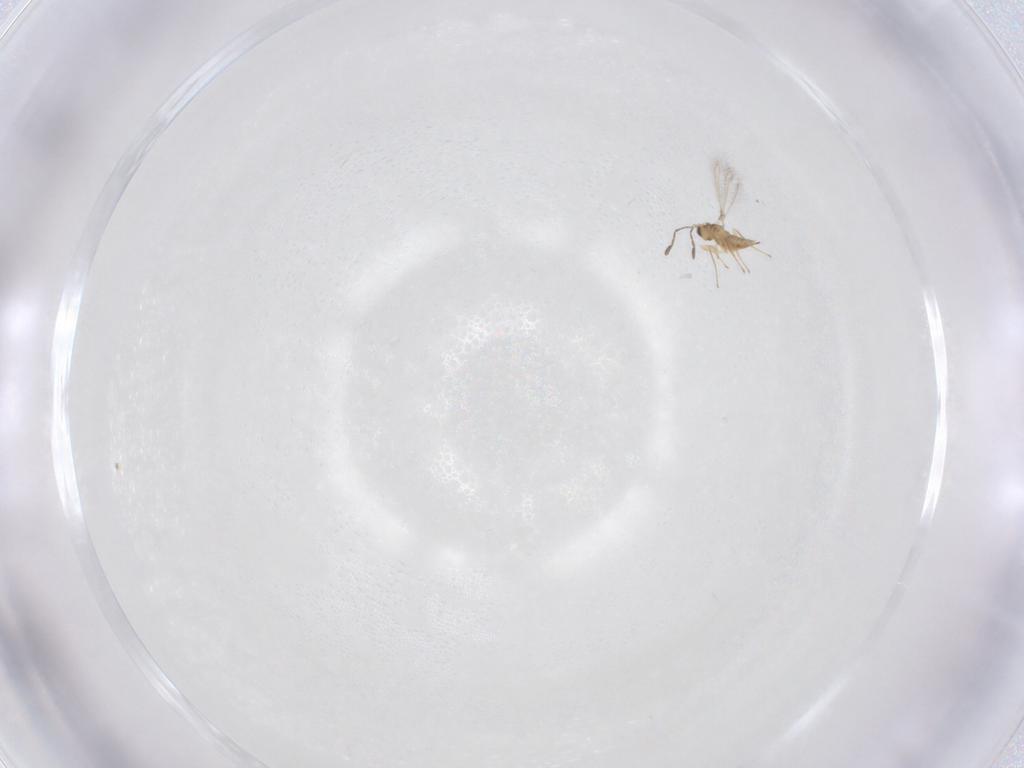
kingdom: Animalia
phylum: Arthropoda
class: Insecta
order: Hymenoptera
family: Mymaridae
